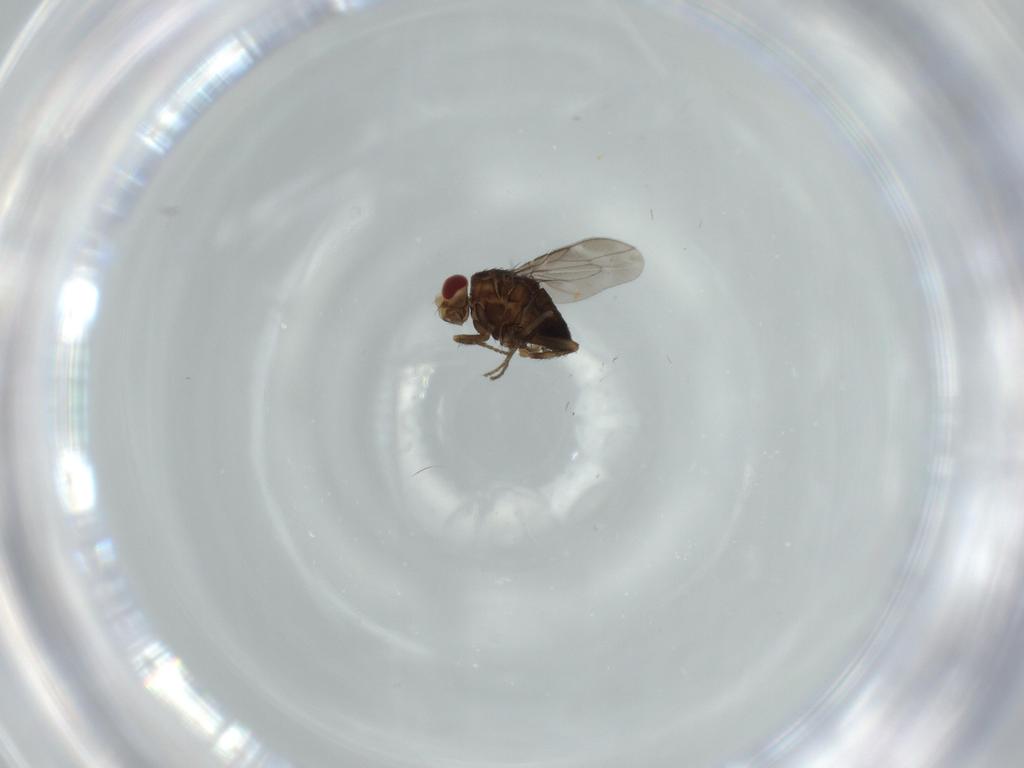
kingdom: Animalia
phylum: Arthropoda
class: Insecta
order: Diptera
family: Sphaeroceridae
